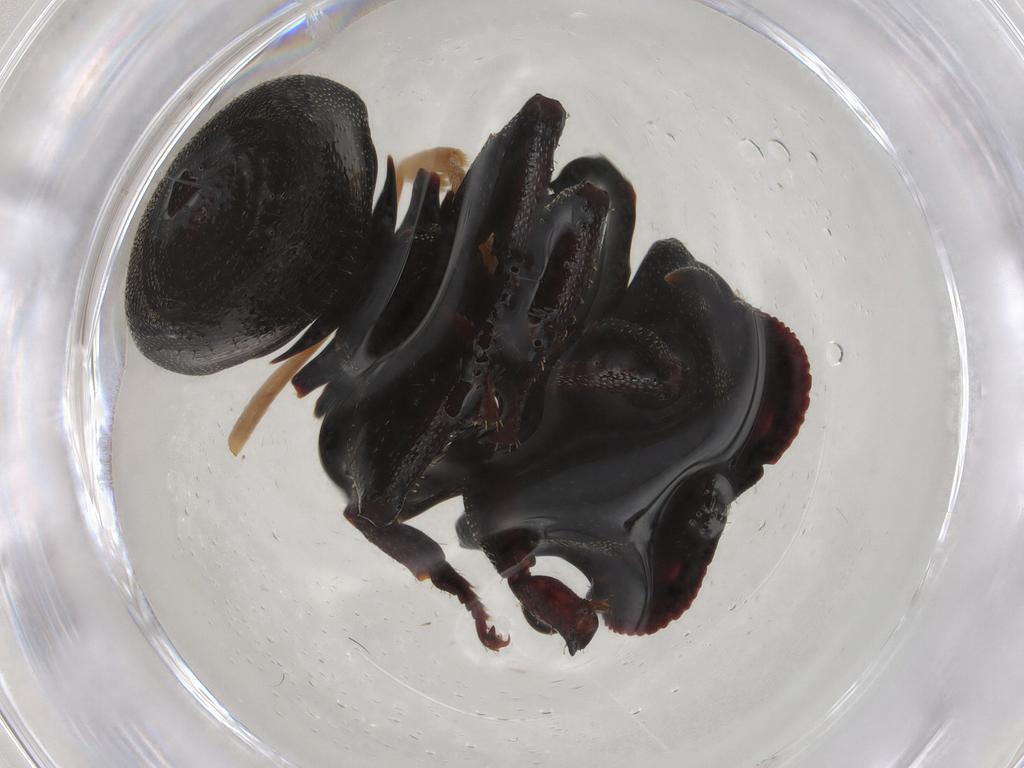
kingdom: Animalia
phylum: Arthropoda
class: Insecta
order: Hymenoptera
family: Formicidae
